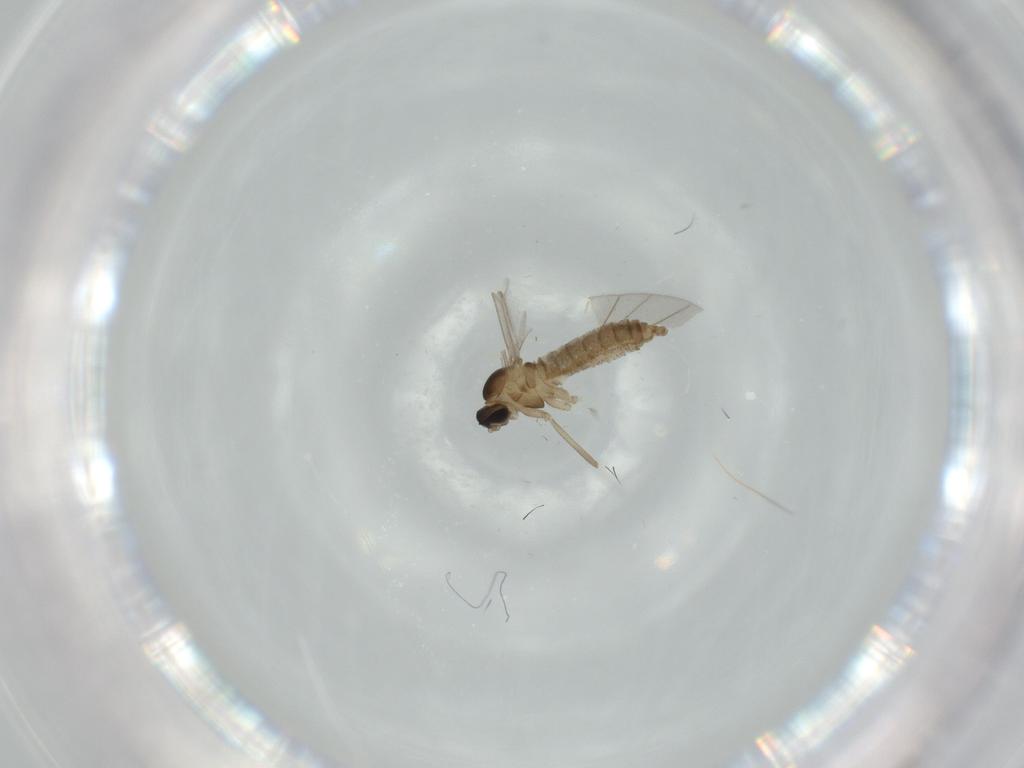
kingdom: Animalia
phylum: Arthropoda
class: Insecta
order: Diptera
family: Cecidomyiidae
